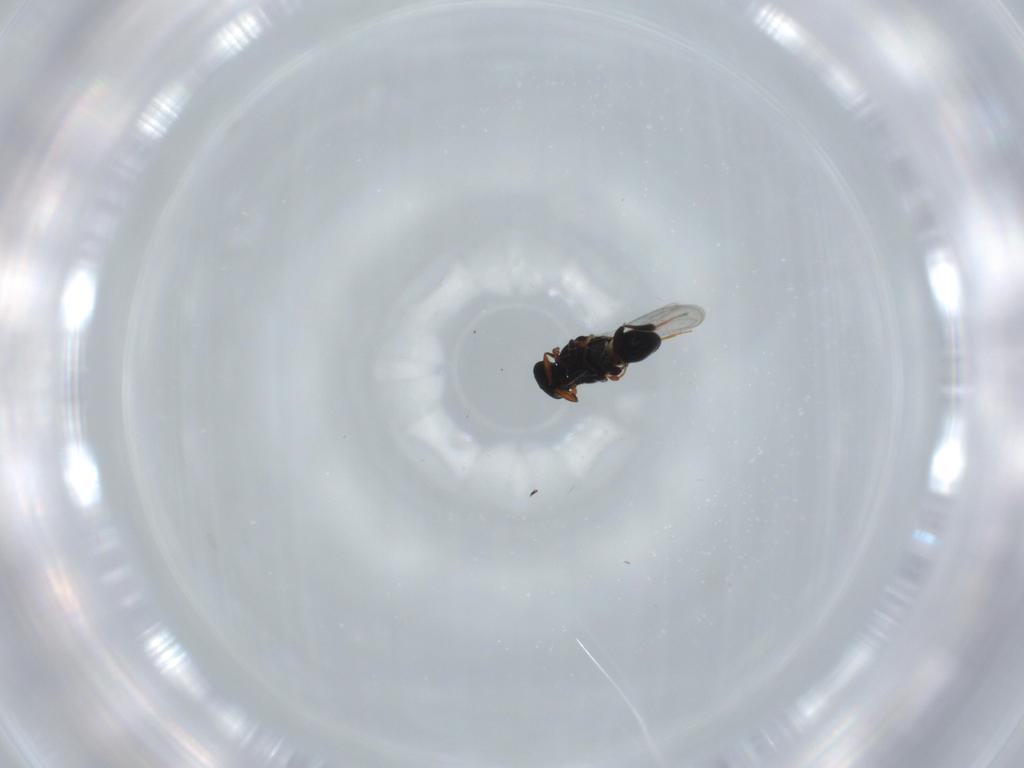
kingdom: Animalia
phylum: Arthropoda
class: Insecta
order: Hymenoptera
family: Platygastridae
